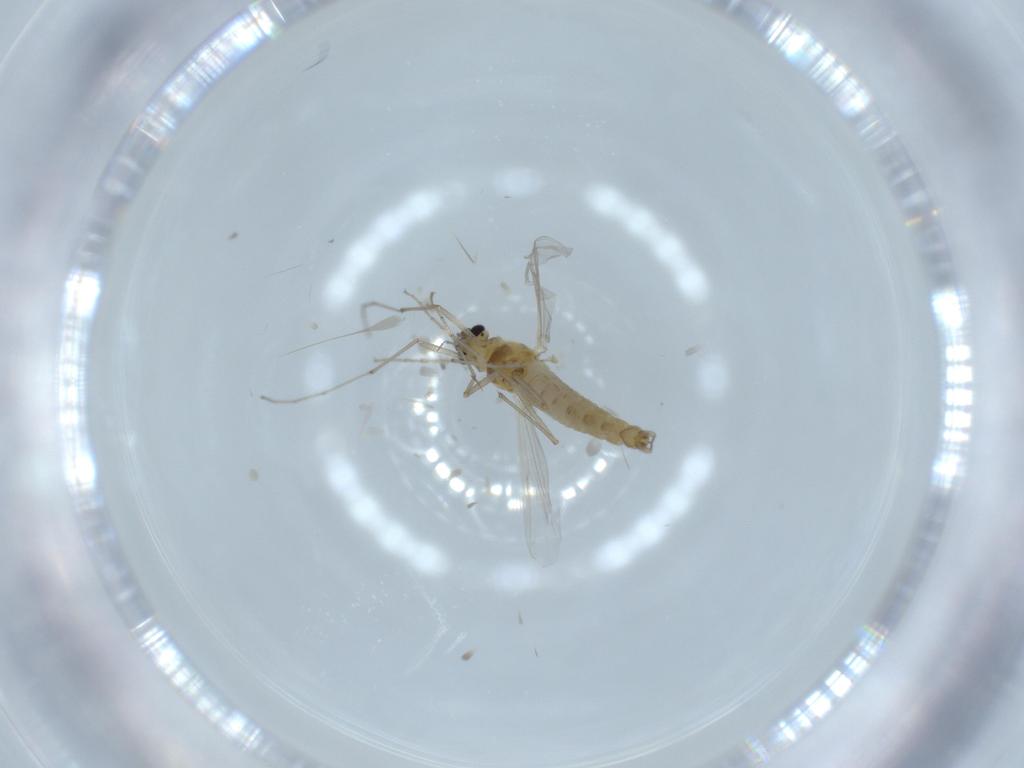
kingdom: Animalia
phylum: Arthropoda
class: Insecta
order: Diptera
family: Chironomidae
